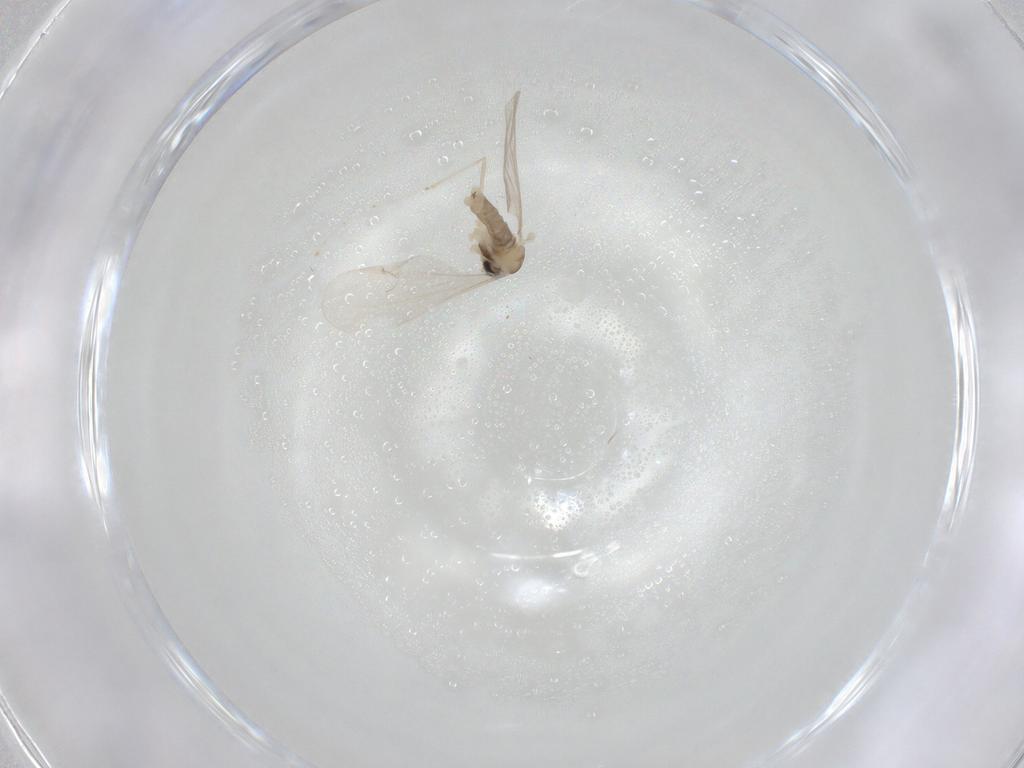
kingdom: Animalia
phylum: Arthropoda
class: Insecta
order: Diptera
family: Cecidomyiidae
